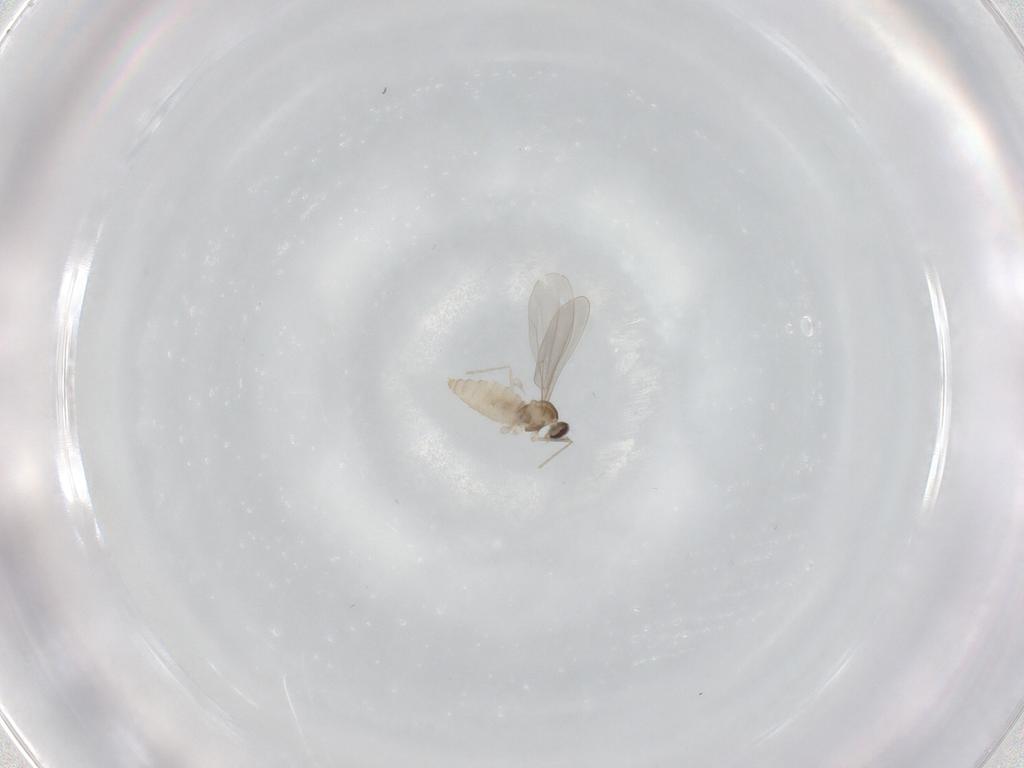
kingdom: Animalia
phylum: Arthropoda
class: Insecta
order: Diptera
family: Cecidomyiidae
